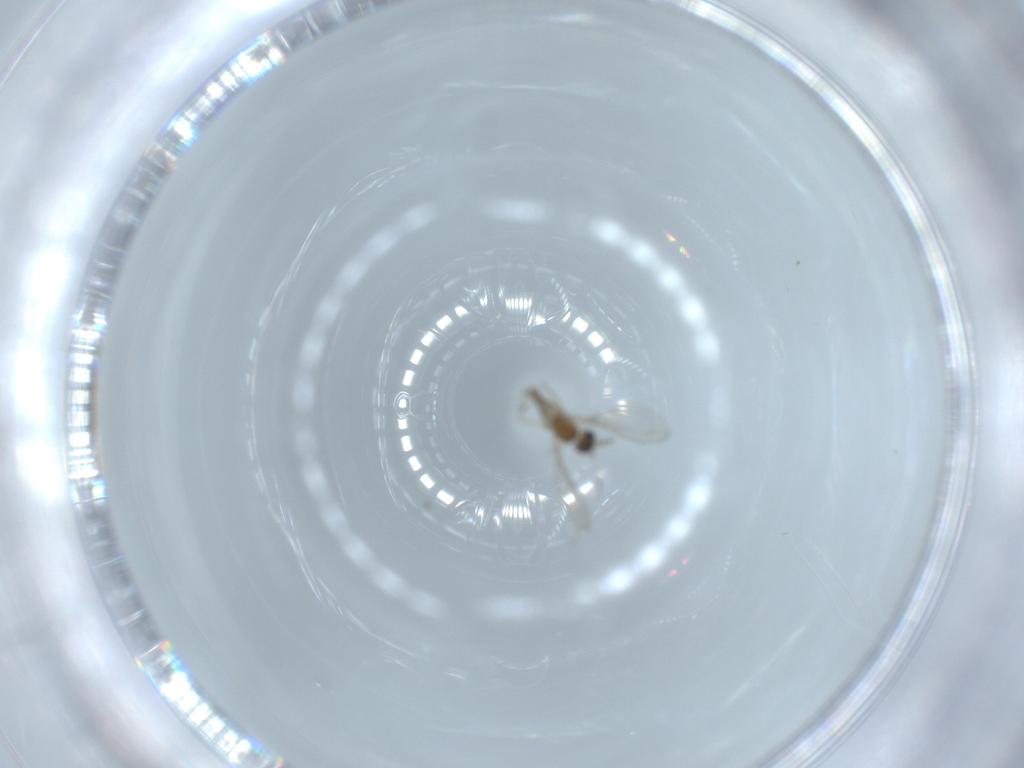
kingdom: Animalia
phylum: Arthropoda
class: Insecta
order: Diptera
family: Cecidomyiidae
